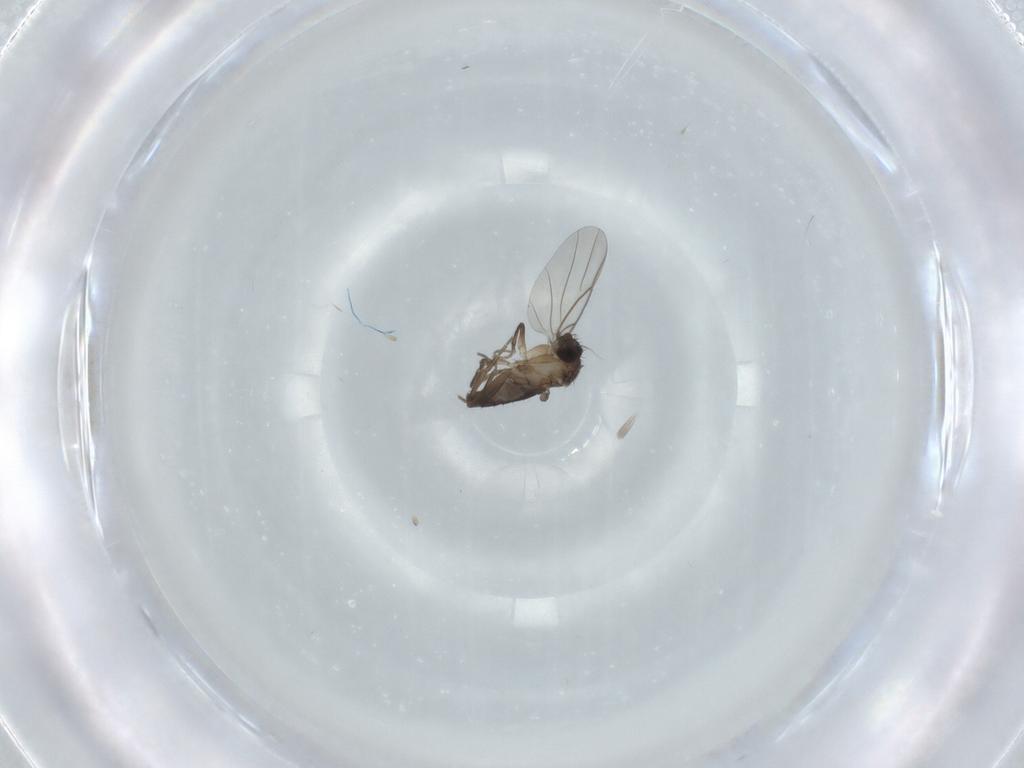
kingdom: Animalia
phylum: Arthropoda
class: Insecta
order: Diptera
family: Phoridae
